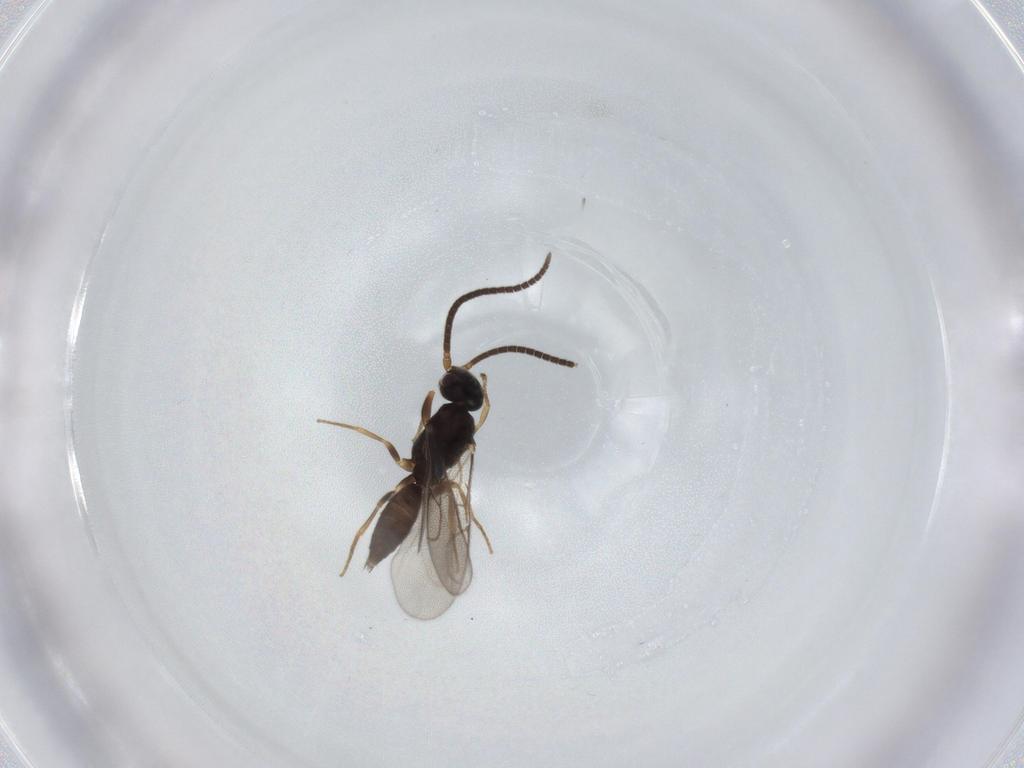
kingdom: Animalia
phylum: Arthropoda
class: Insecta
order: Hymenoptera
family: Sclerogibbidae
